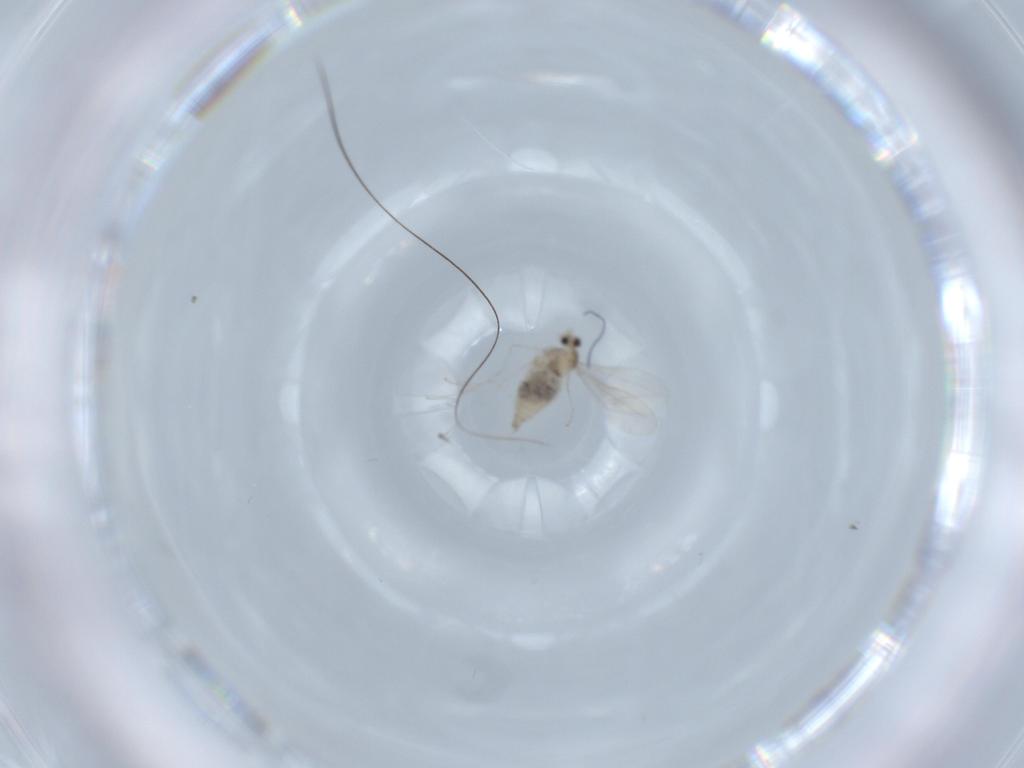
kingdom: Animalia
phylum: Arthropoda
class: Insecta
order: Diptera
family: Cecidomyiidae
